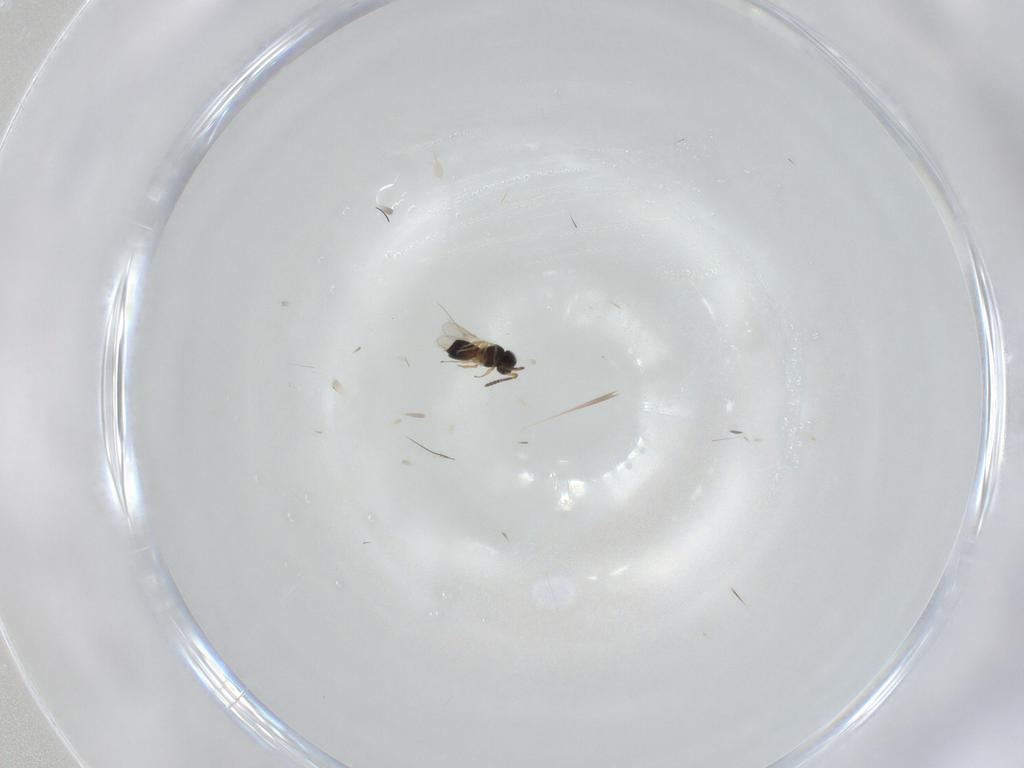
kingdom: Animalia
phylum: Arthropoda
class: Insecta
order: Hymenoptera
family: Scelionidae
